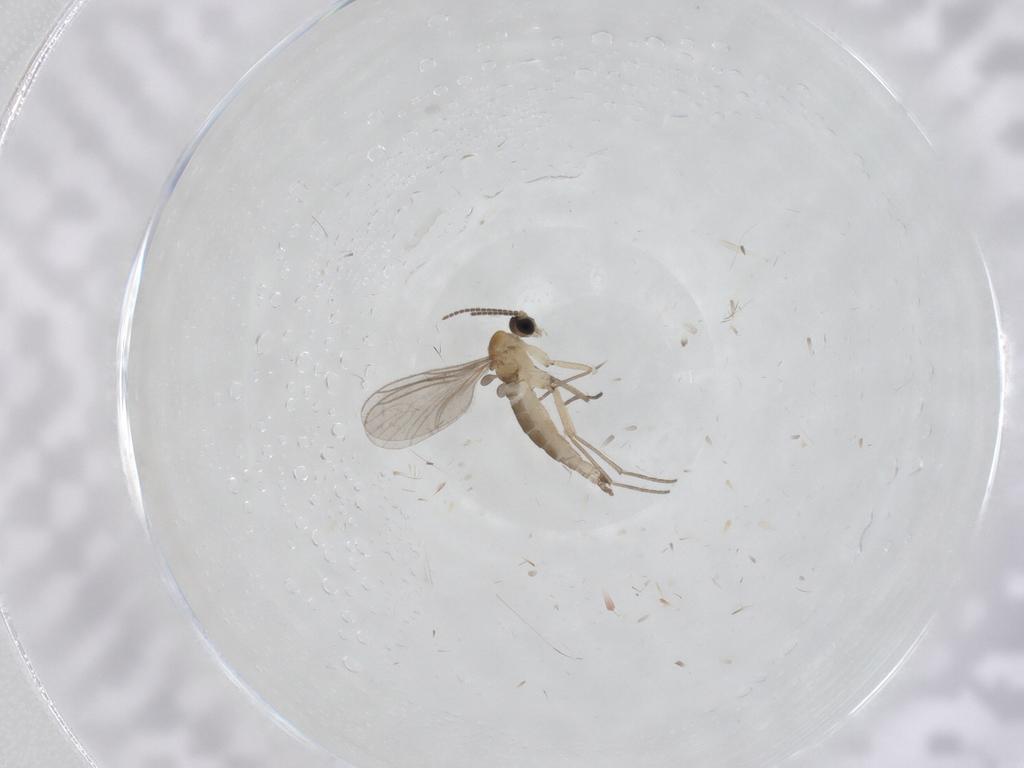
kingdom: Animalia
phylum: Arthropoda
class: Insecta
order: Diptera
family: Sciaridae
